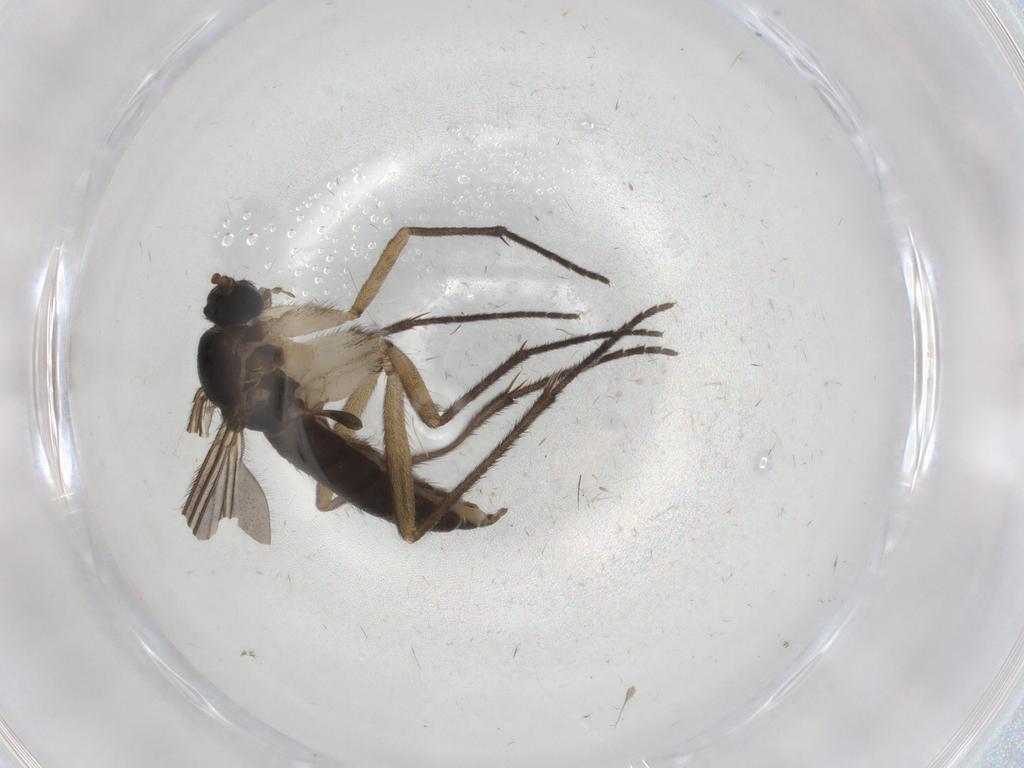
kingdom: Animalia
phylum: Arthropoda
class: Insecta
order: Diptera
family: Sciaridae
